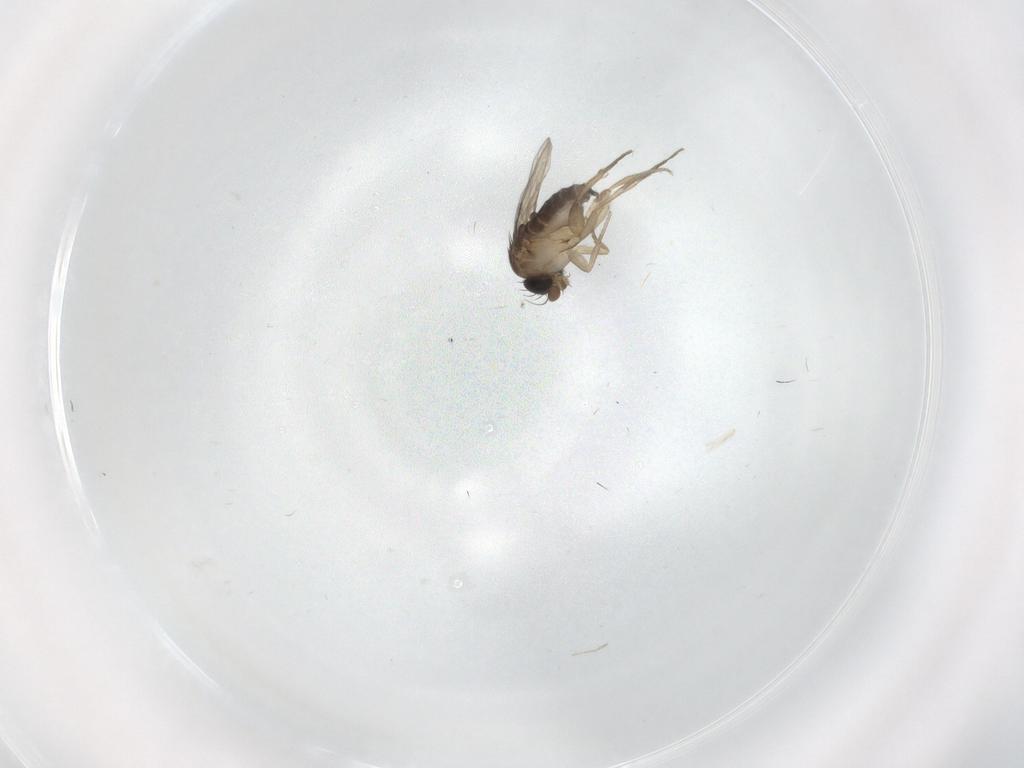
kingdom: Animalia
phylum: Arthropoda
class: Insecta
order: Diptera
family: Phoridae
